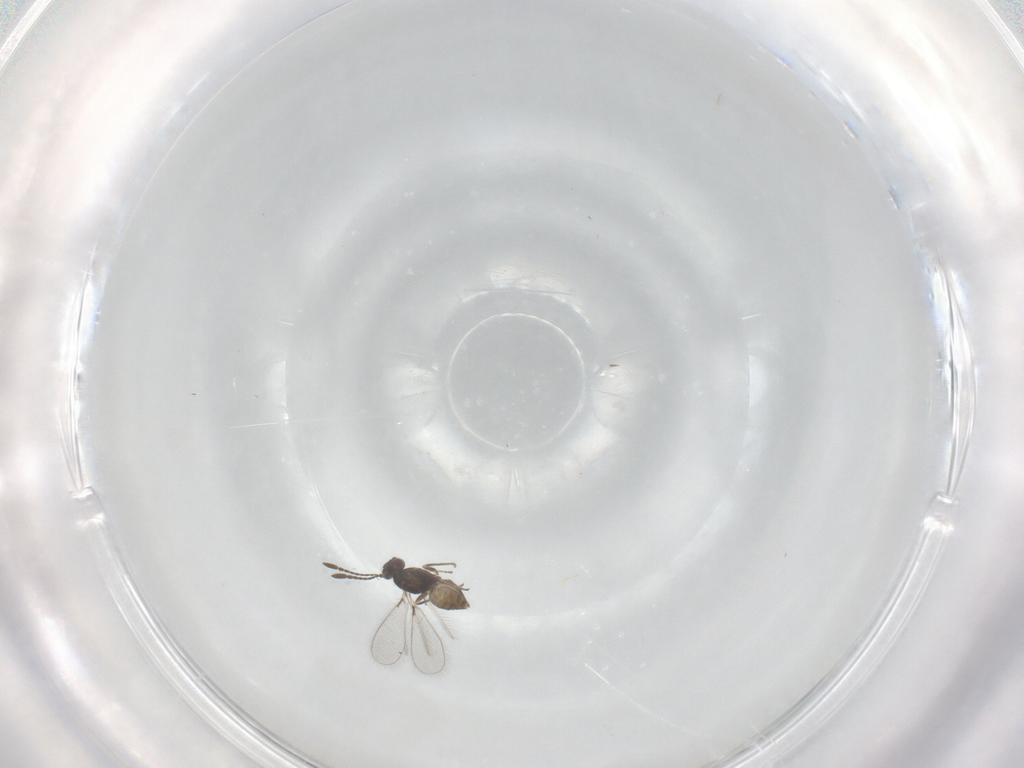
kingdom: Animalia
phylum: Arthropoda
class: Insecta
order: Hymenoptera
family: Mymaridae
